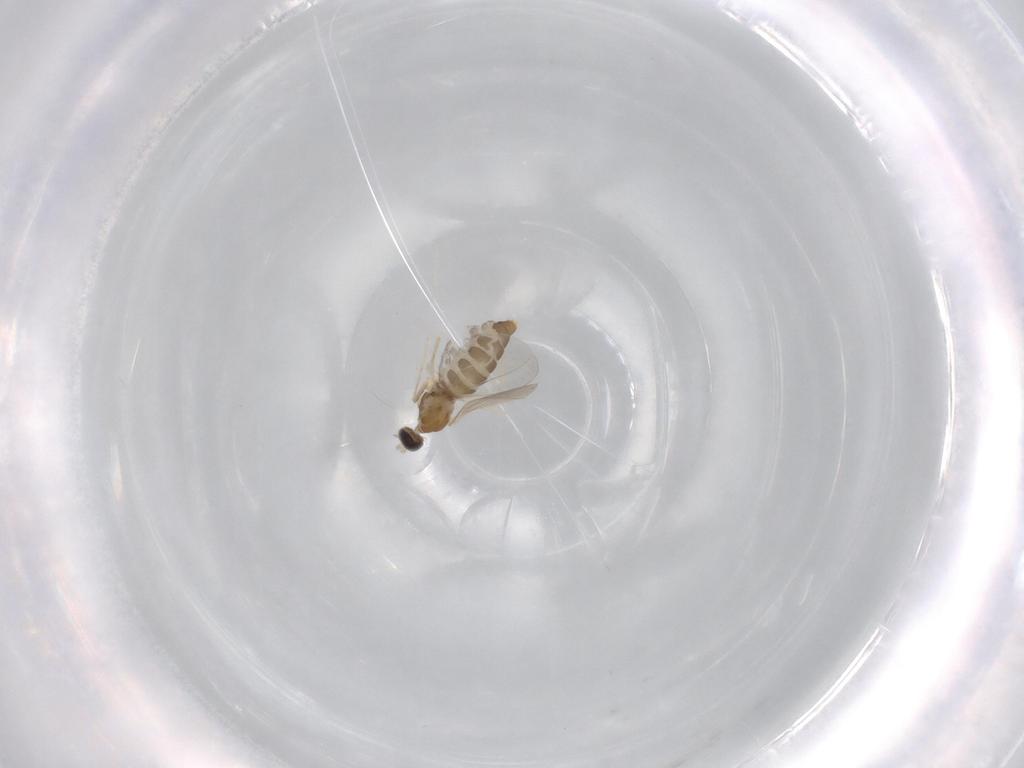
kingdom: Animalia
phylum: Arthropoda
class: Insecta
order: Diptera
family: Cecidomyiidae
